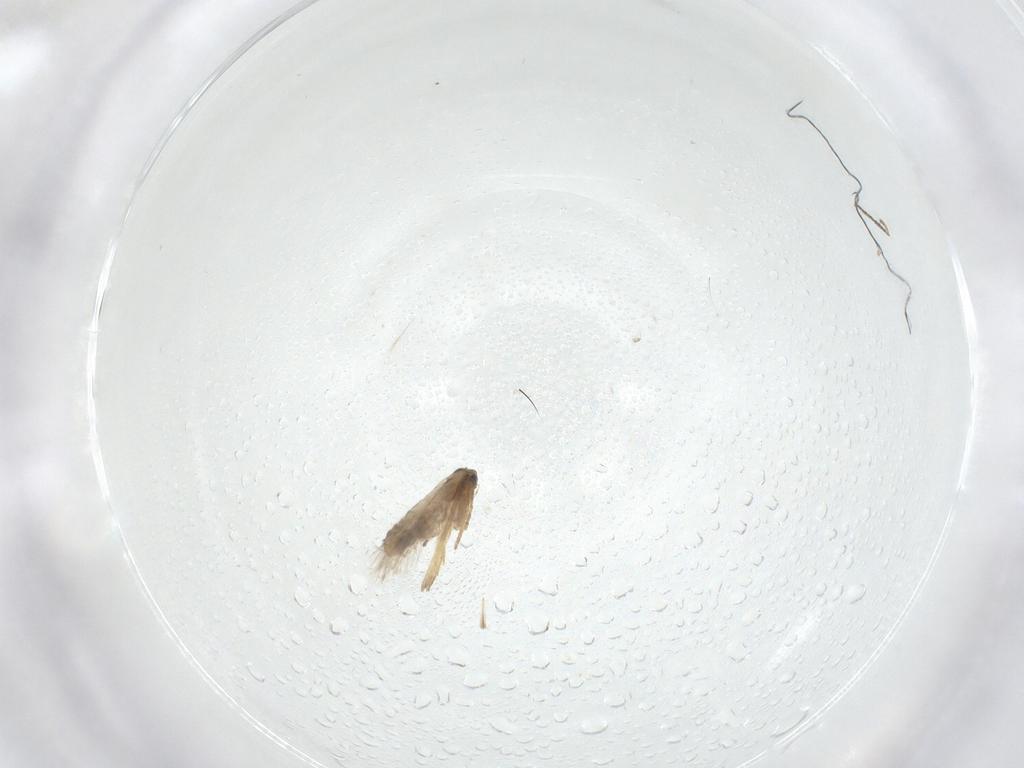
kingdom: Animalia
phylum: Arthropoda
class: Insecta
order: Lepidoptera
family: Nepticulidae
